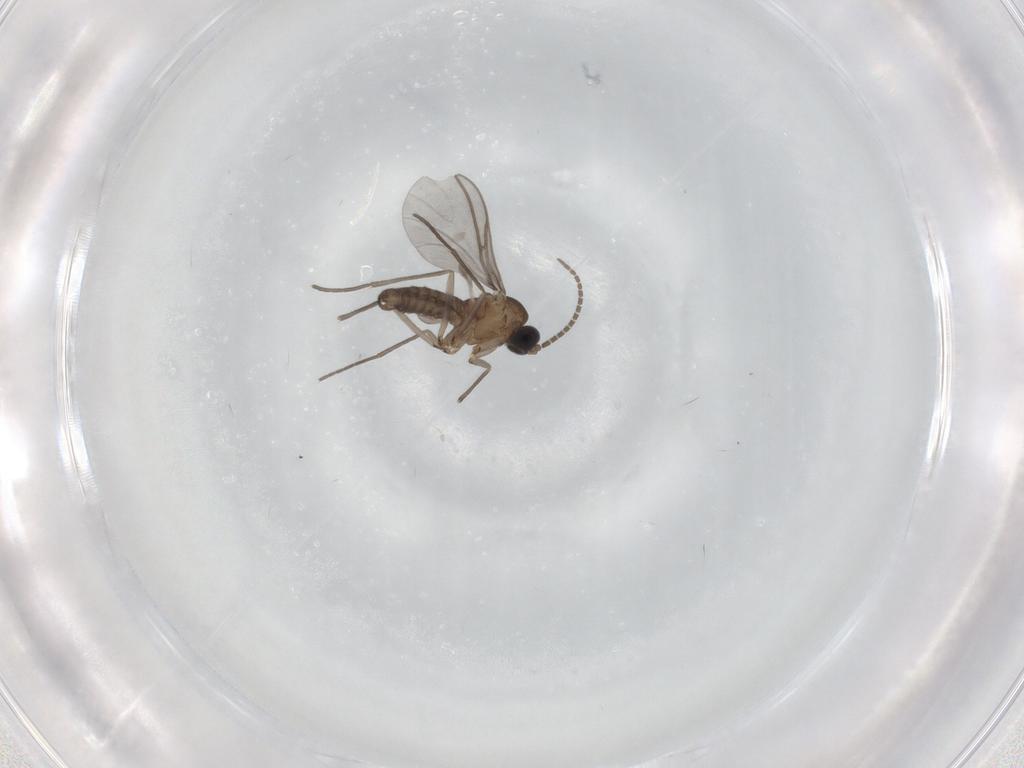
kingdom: Animalia
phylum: Arthropoda
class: Insecta
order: Diptera
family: Sciaridae
